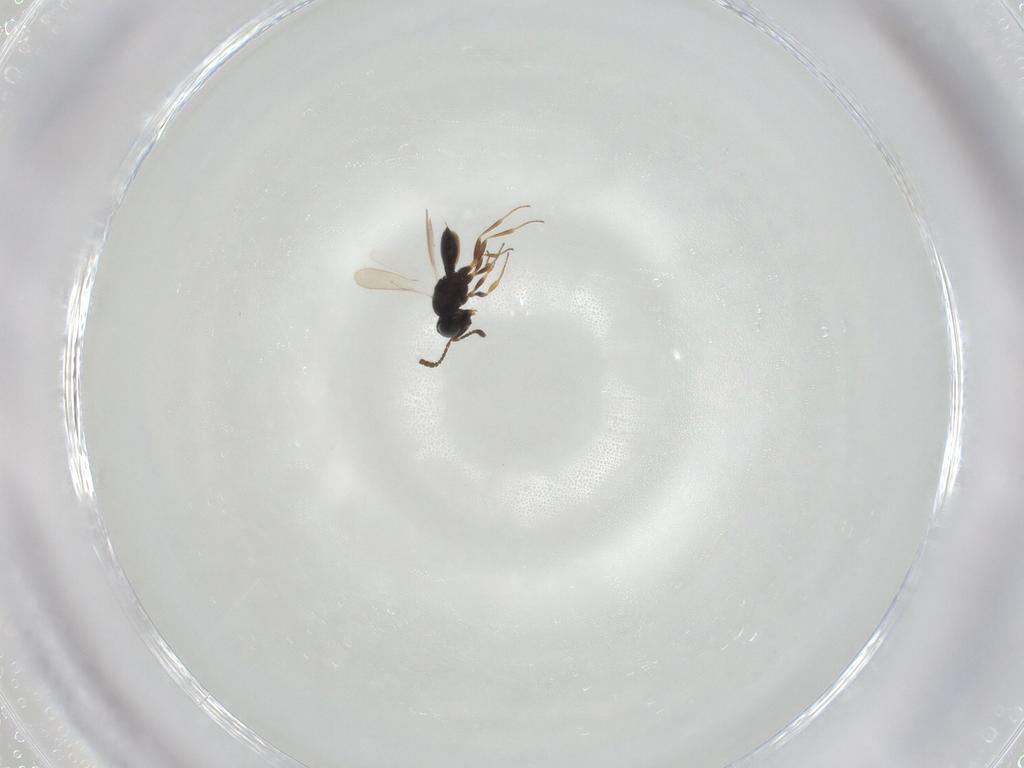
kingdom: Animalia
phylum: Arthropoda
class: Insecta
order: Hymenoptera
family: Scelionidae
